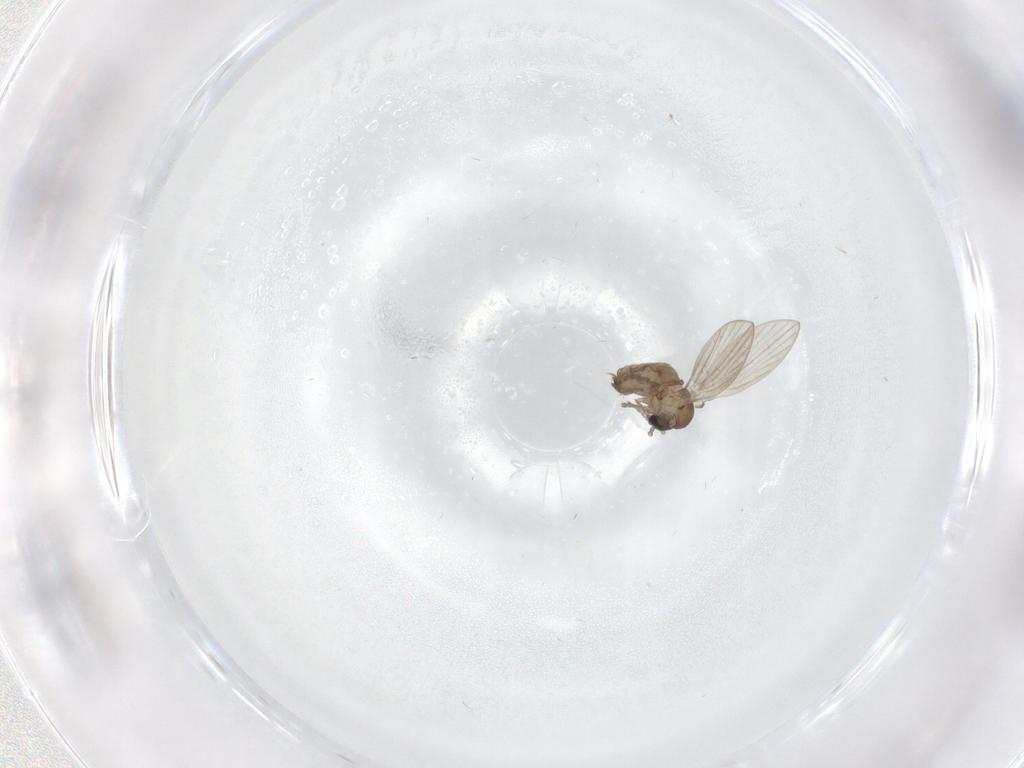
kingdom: Animalia
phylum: Arthropoda
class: Insecta
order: Diptera
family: Psychodidae
